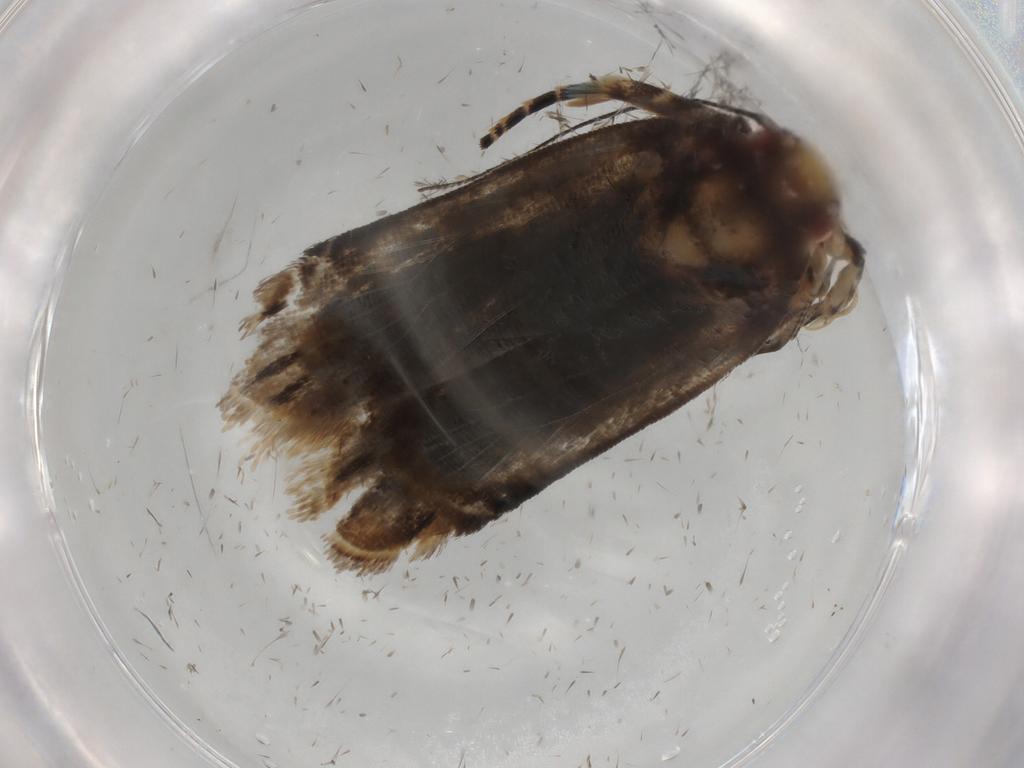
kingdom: Animalia
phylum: Arthropoda
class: Insecta
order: Lepidoptera
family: Gelechiidae
